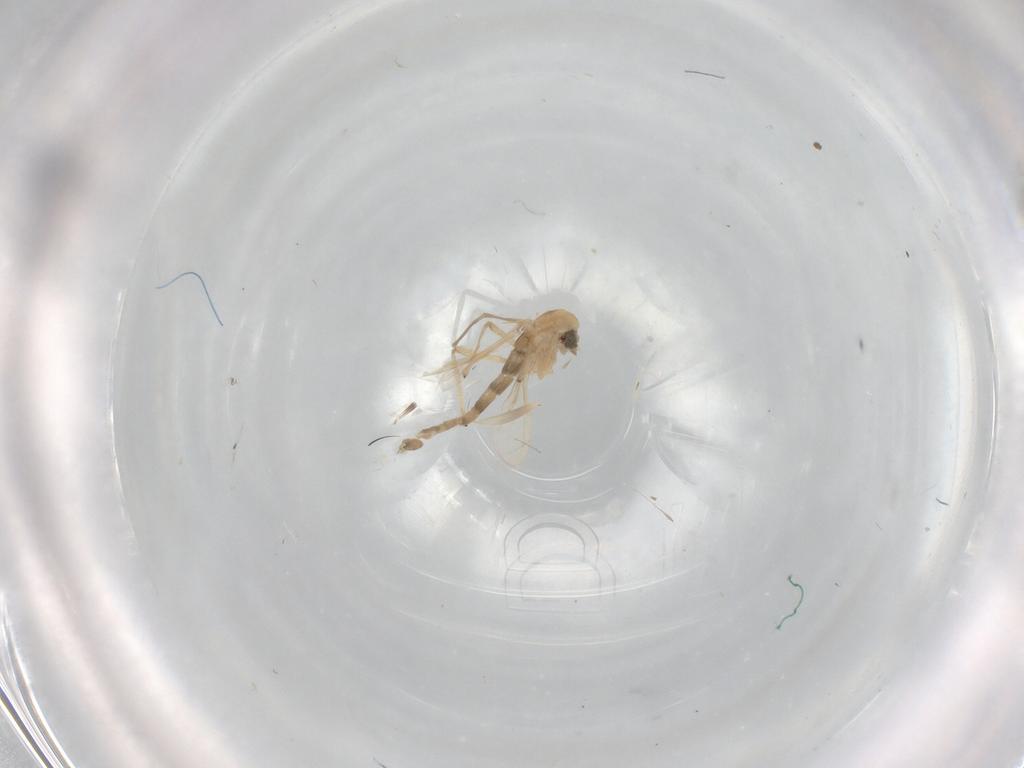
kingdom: Animalia
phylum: Arthropoda
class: Insecta
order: Diptera
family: Chironomidae
